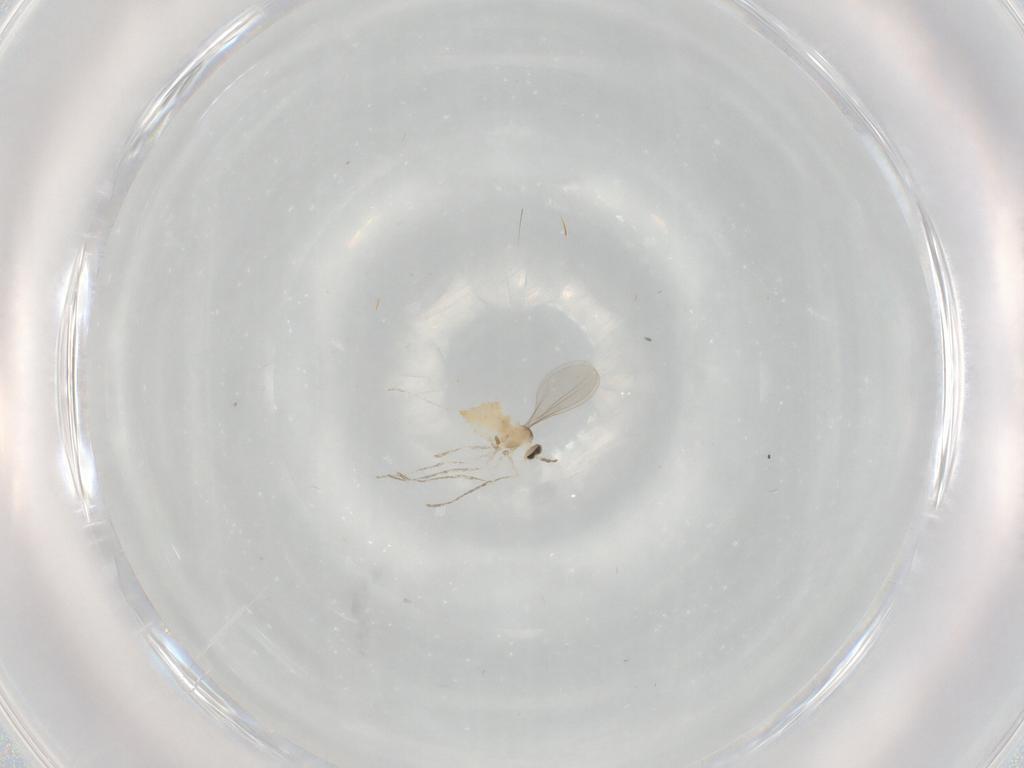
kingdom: Animalia
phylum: Arthropoda
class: Insecta
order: Diptera
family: Cecidomyiidae
